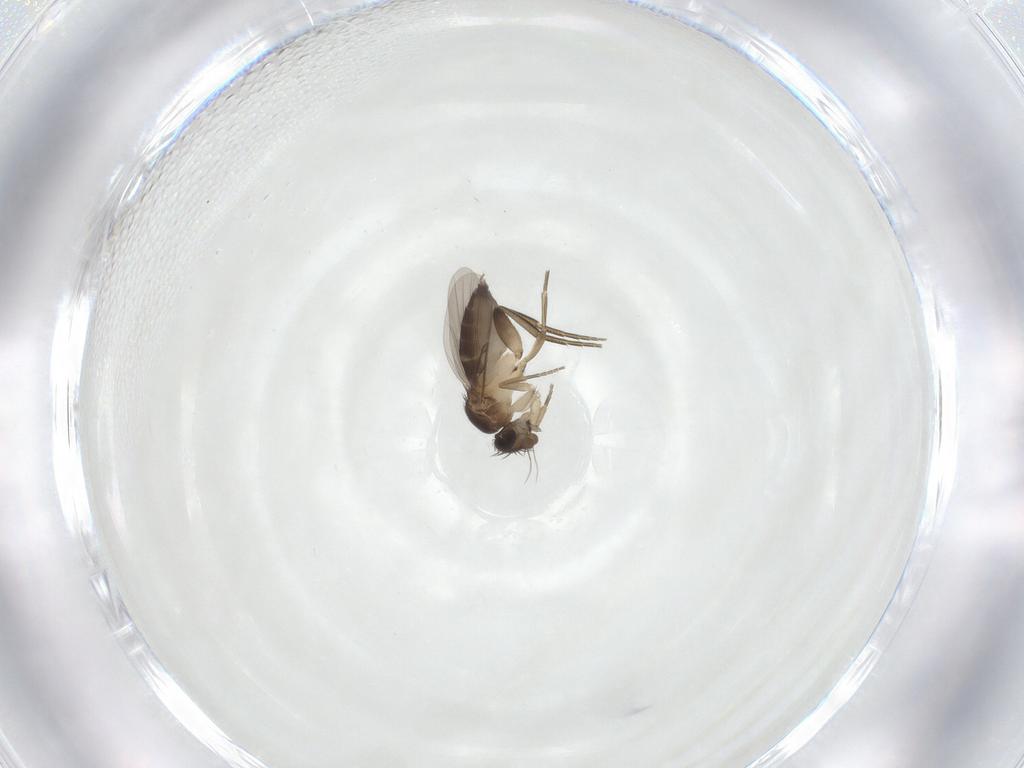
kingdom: Animalia
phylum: Arthropoda
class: Insecta
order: Diptera
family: Phoridae
